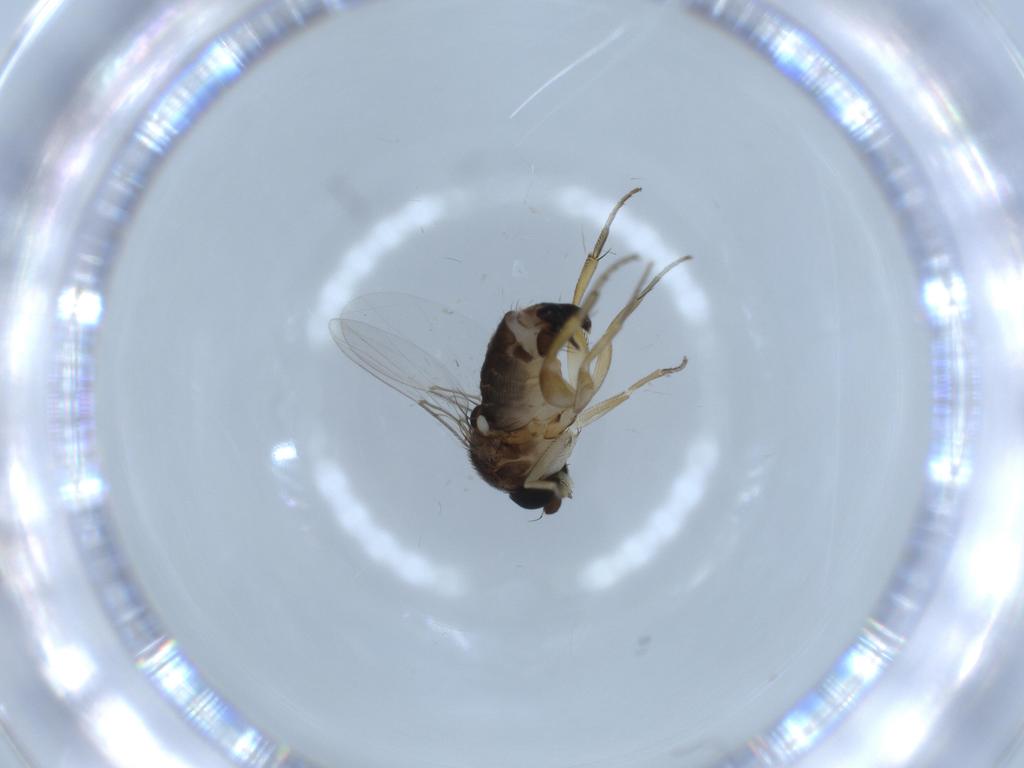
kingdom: Animalia
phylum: Arthropoda
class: Insecta
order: Diptera
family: Phoridae
